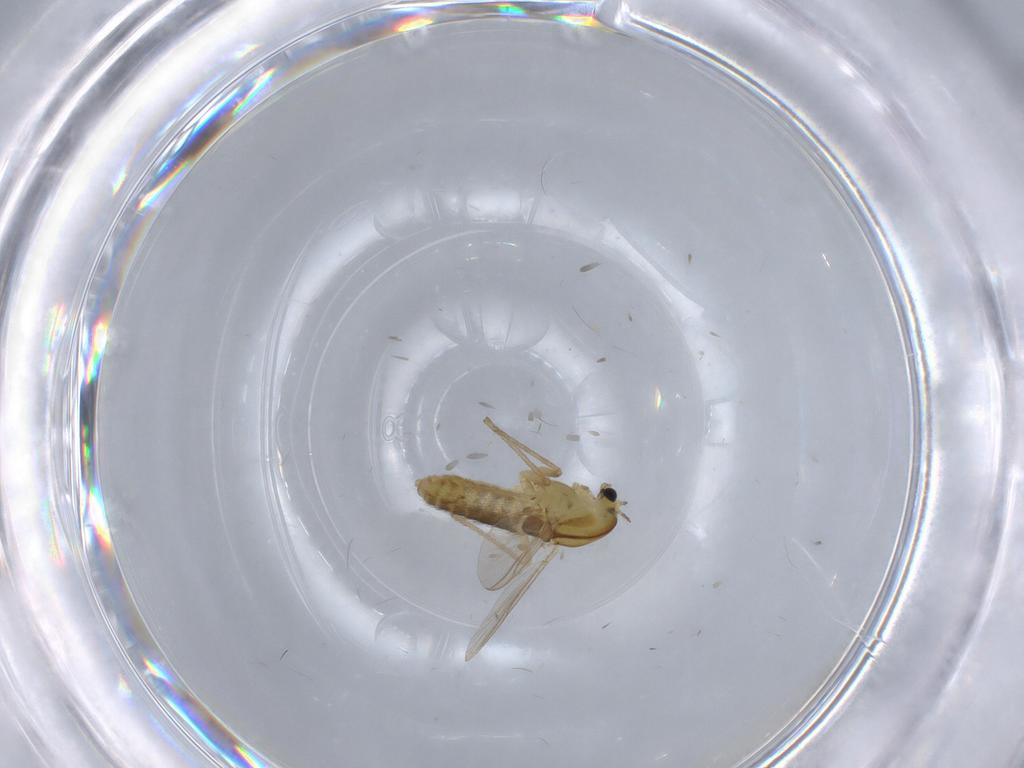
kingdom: Animalia
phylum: Arthropoda
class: Insecta
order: Diptera
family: Chironomidae
